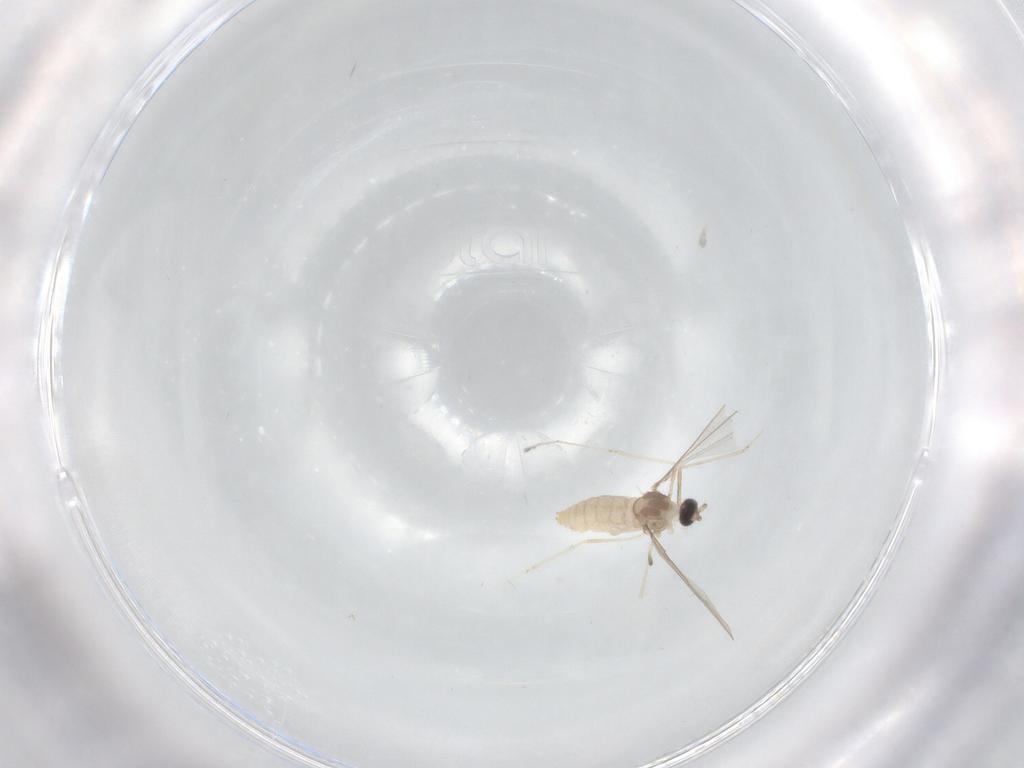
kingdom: Animalia
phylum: Arthropoda
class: Insecta
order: Diptera
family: Cecidomyiidae
